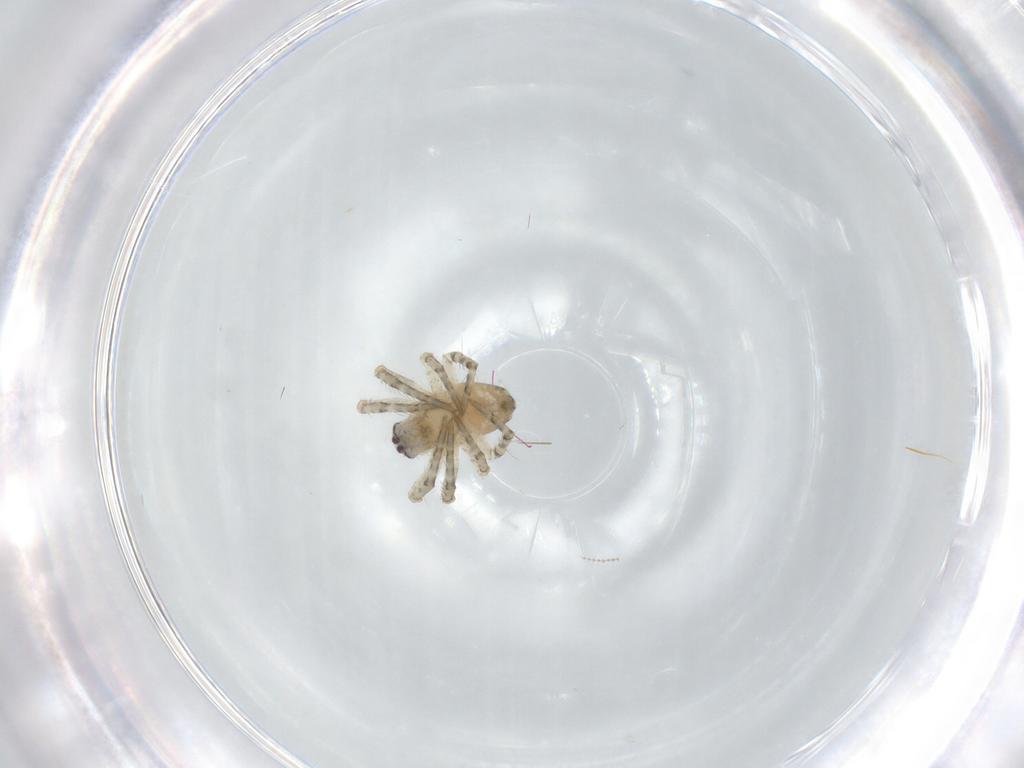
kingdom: Animalia
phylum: Arthropoda
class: Arachnida
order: Araneae
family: Araneidae
